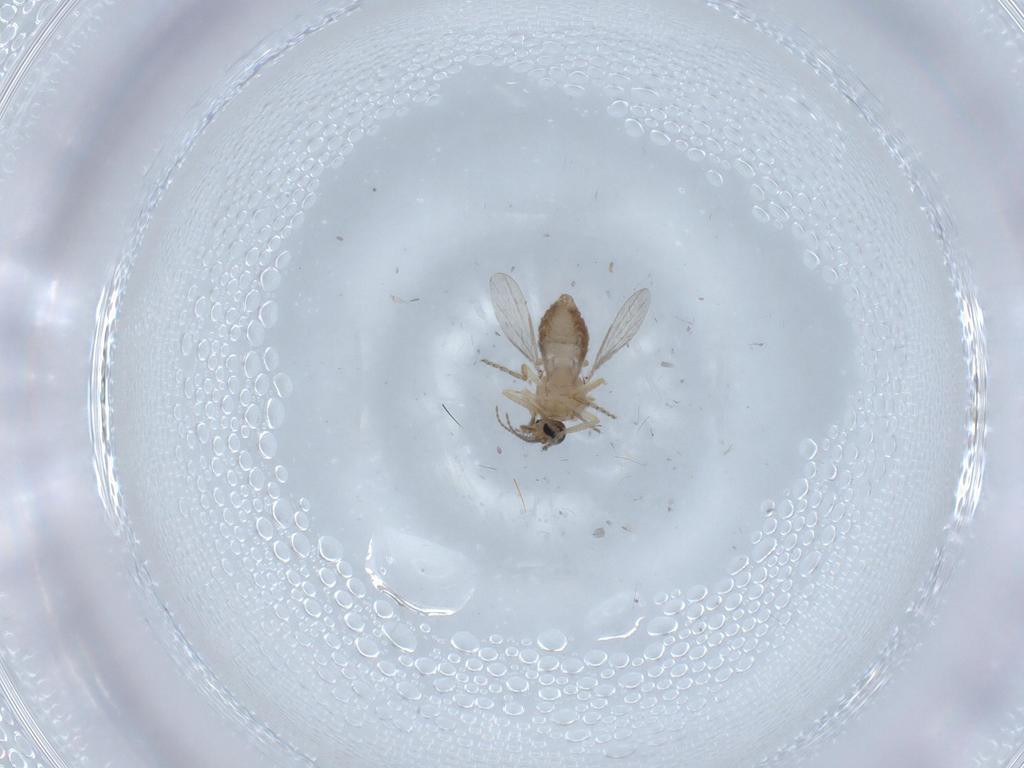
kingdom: Animalia
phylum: Arthropoda
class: Insecta
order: Diptera
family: Ceratopogonidae
